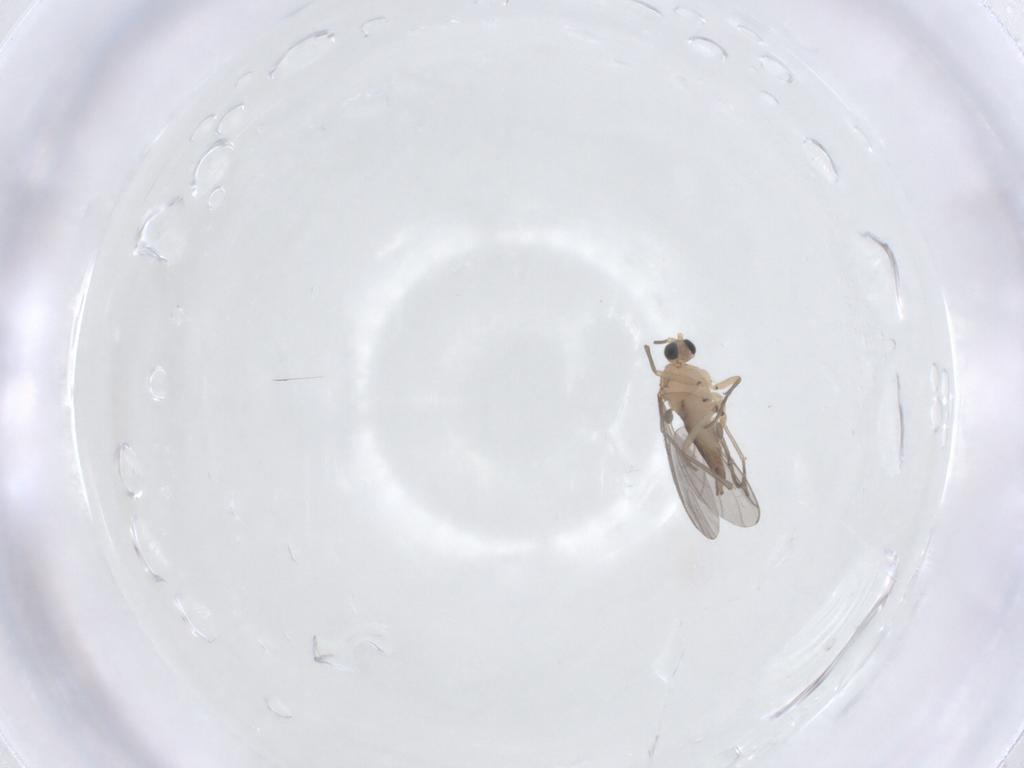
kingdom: Animalia
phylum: Arthropoda
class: Insecta
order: Diptera
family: Sciaridae
